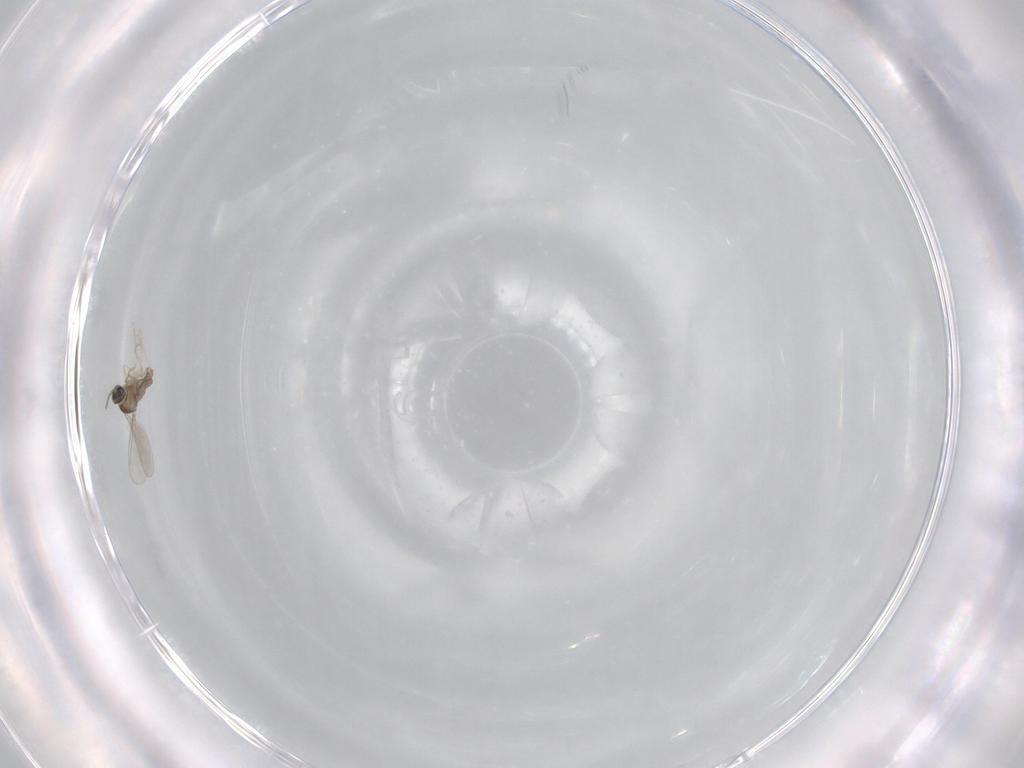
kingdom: Animalia
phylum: Arthropoda
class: Insecta
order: Diptera
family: Cecidomyiidae
